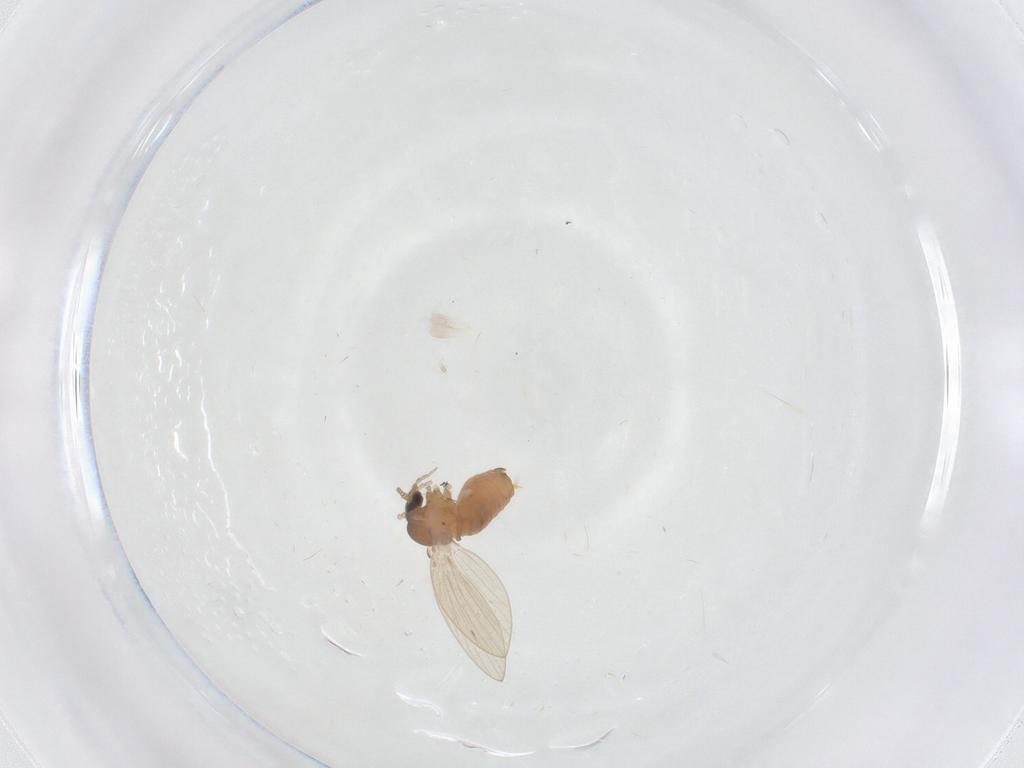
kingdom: Animalia
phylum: Arthropoda
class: Insecta
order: Diptera
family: Psychodidae
